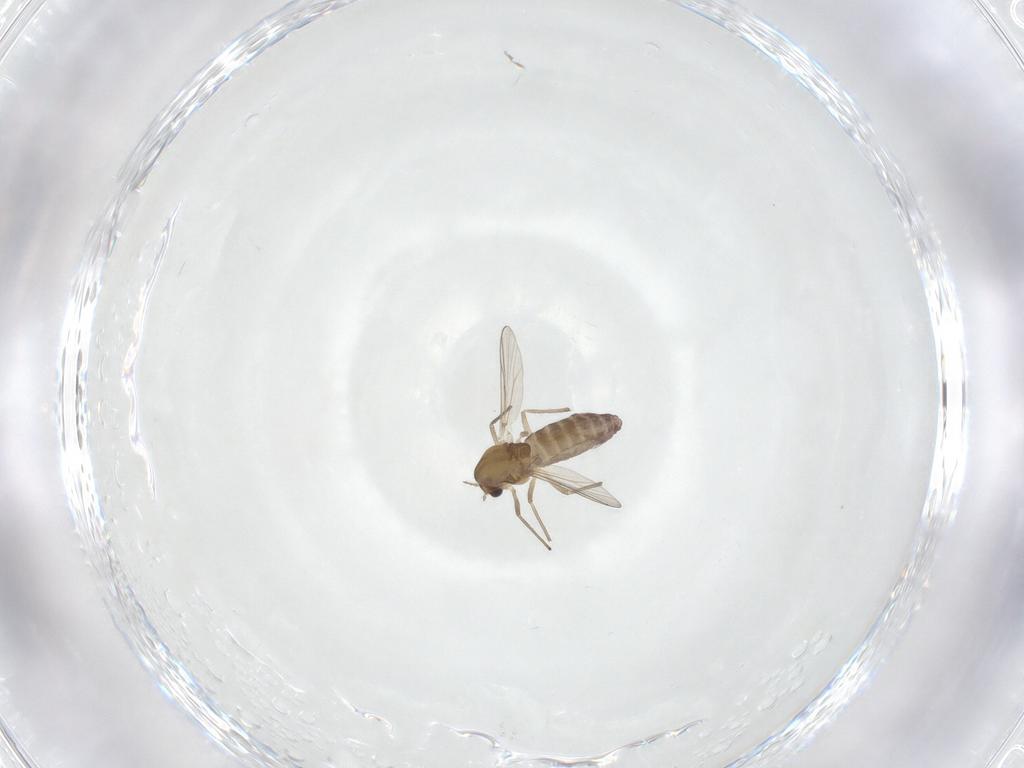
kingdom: Animalia
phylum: Arthropoda
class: Insecta
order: Diptera
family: Chironomidae
